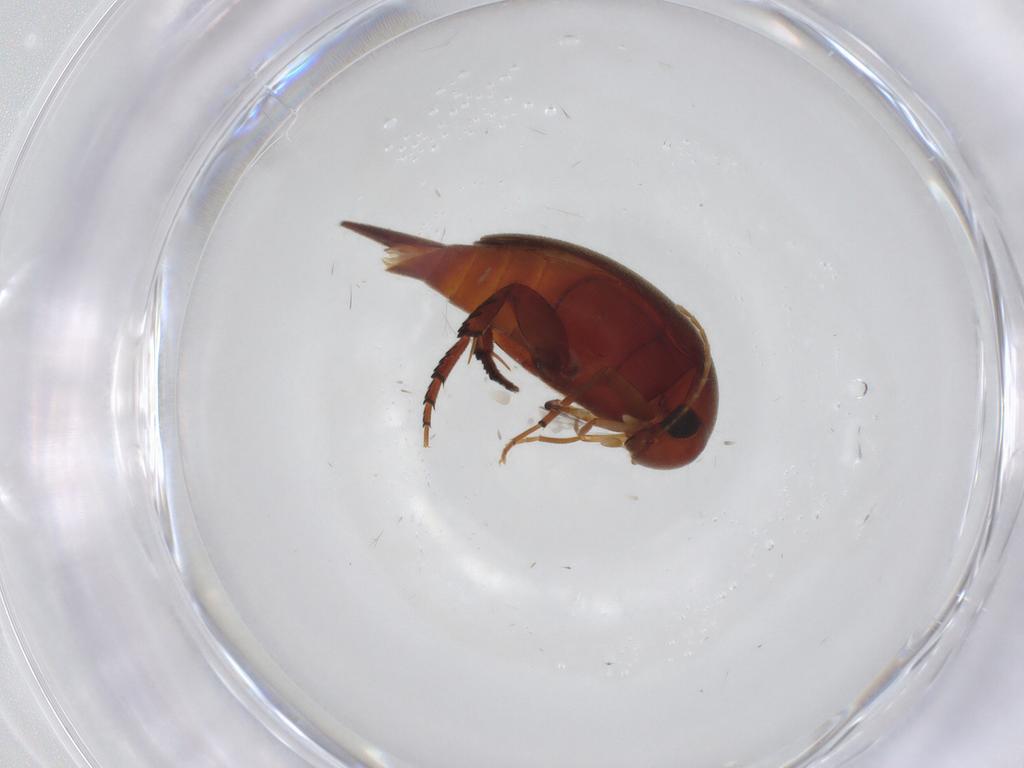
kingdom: Animalia
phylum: Arthropoda
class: Insecta
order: Coleoptera
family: Mordellidae
